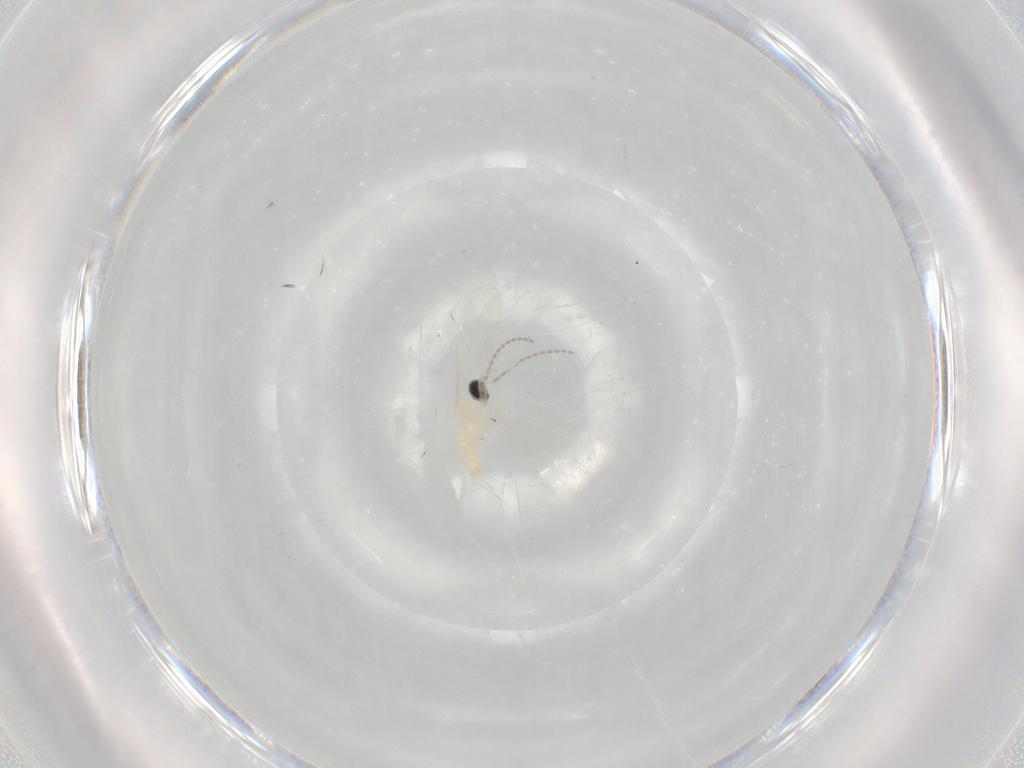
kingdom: Animalia
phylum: Arthropoda
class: Insecta
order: Diptera
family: Cecidomyiidae
